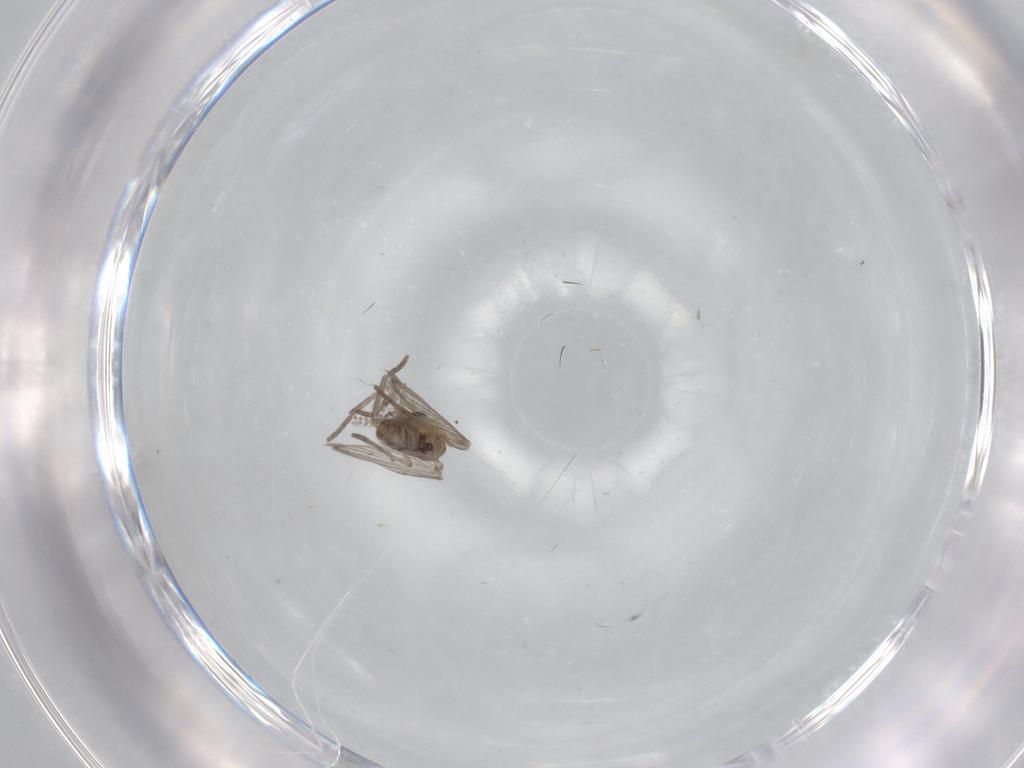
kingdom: Animalia
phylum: Arthropoda
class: Insecta
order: Diptera
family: Psychodidae
